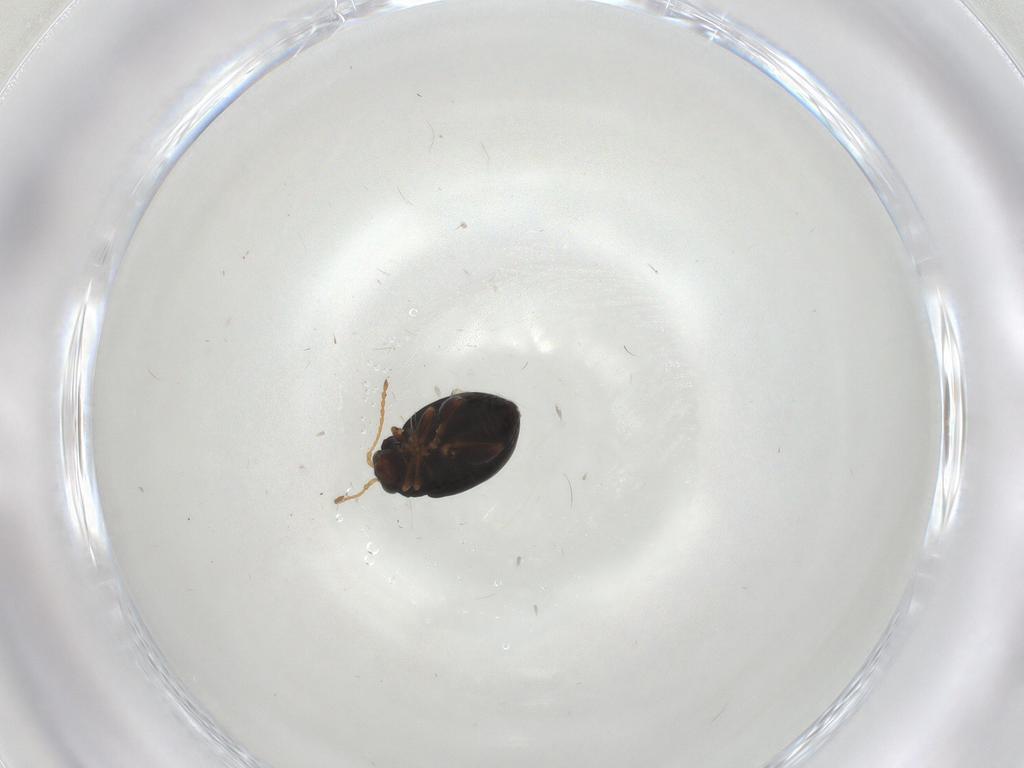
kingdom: Animalia
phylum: Arthropoda
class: Insecta
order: Coleoptera
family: Chrysomelidae
